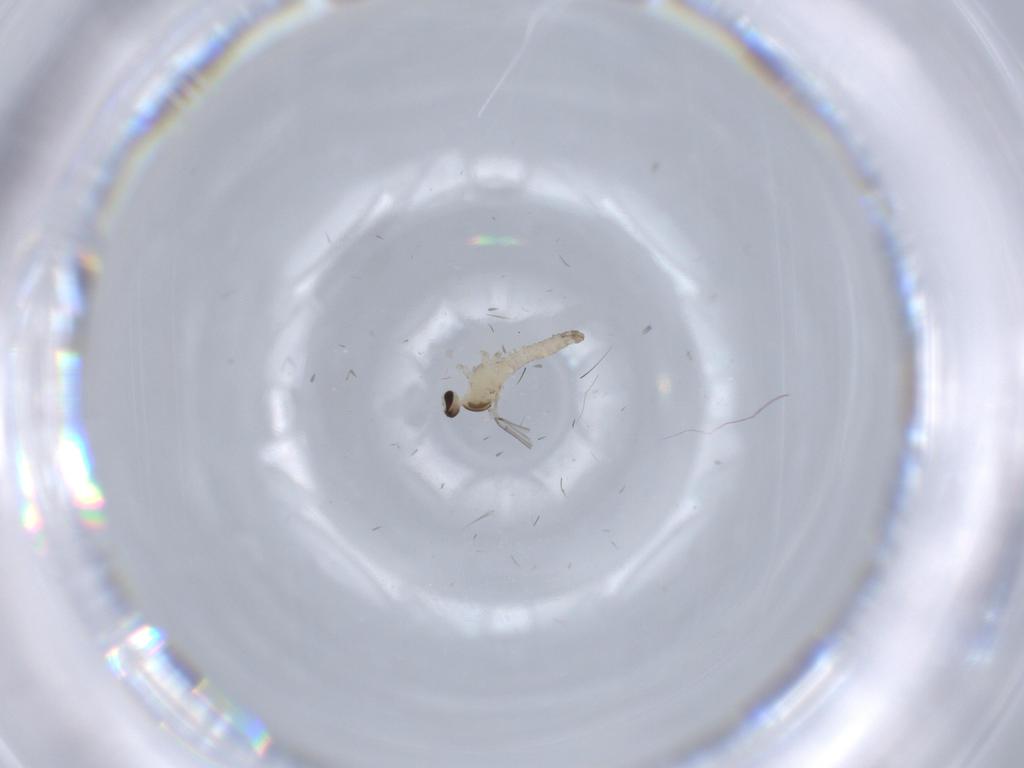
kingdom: Animalia
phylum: Arthropoda
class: Insecta
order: Diptera
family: Cecidomyiidae
